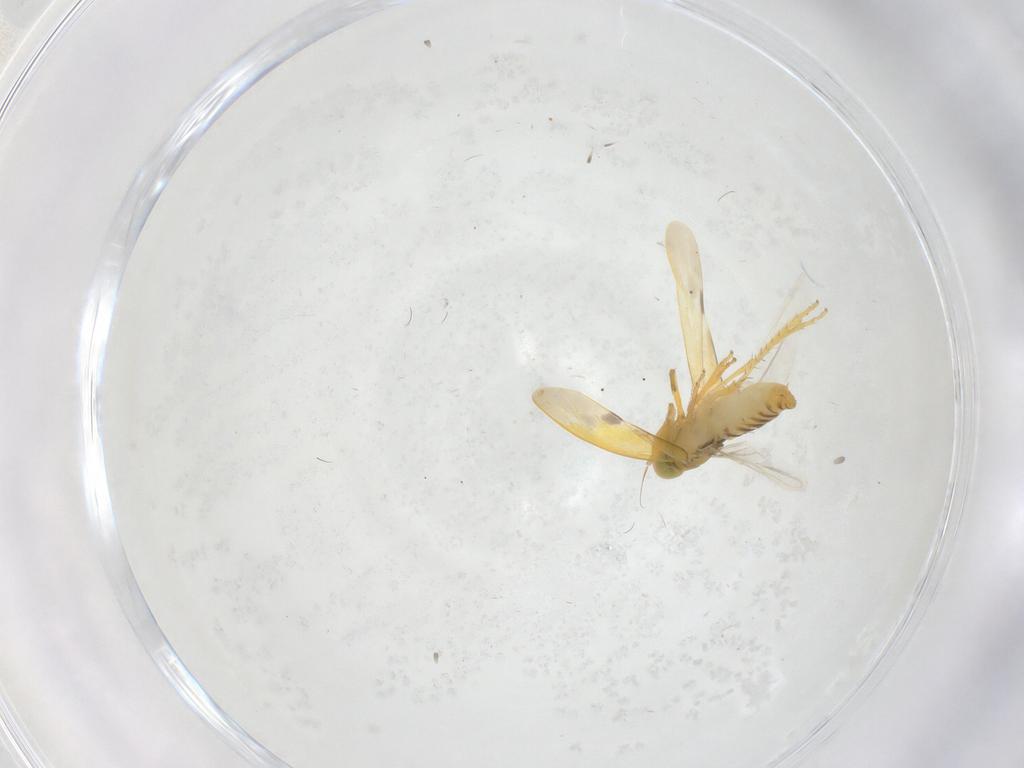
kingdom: Animalia
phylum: Arthropoda
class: Insecta
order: Hemiptera
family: Cicadellidae
